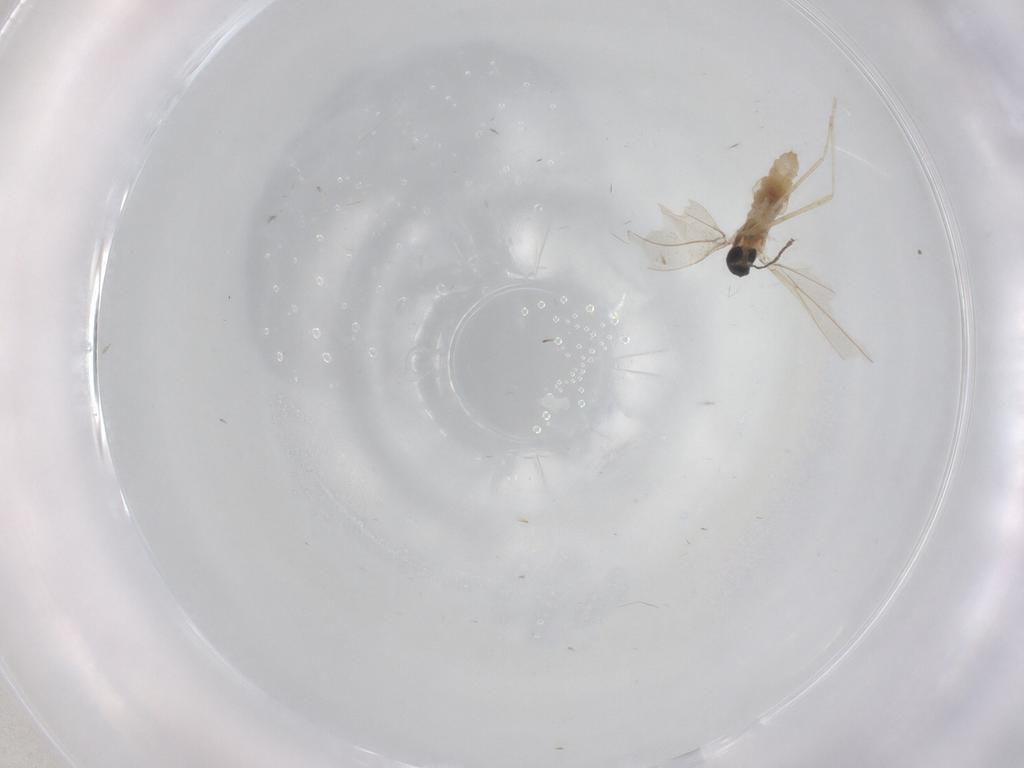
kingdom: Animalia
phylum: Arthropoda
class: Insecta
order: Diptera
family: Cecidomyiidae
